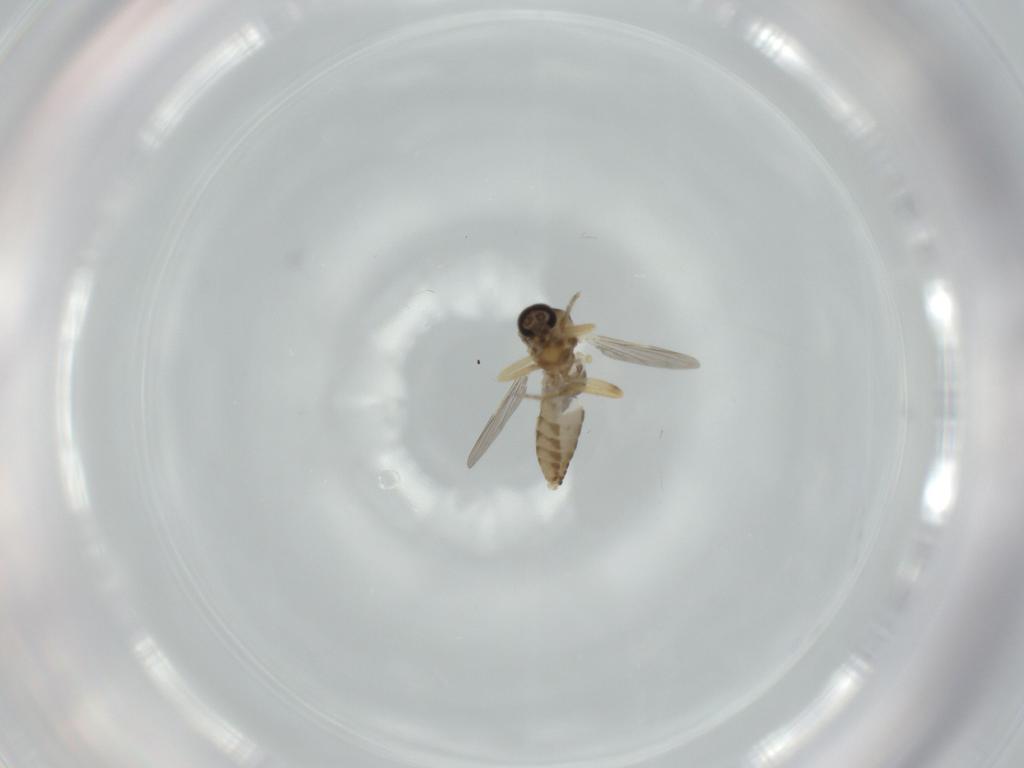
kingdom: Animalia
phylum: Arthropoda
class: Insecta
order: Diptera
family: Ceratopogonidae
